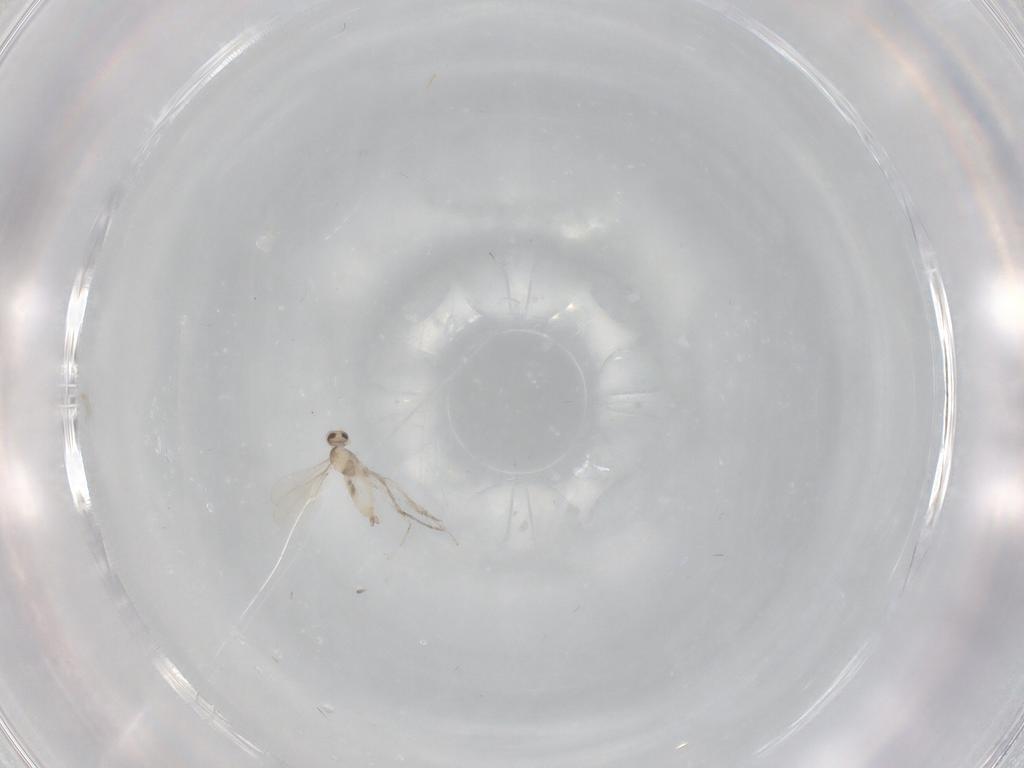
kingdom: Animalia
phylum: Arthropoda
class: Insecta
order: Diptera
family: Cecidomyiidae
